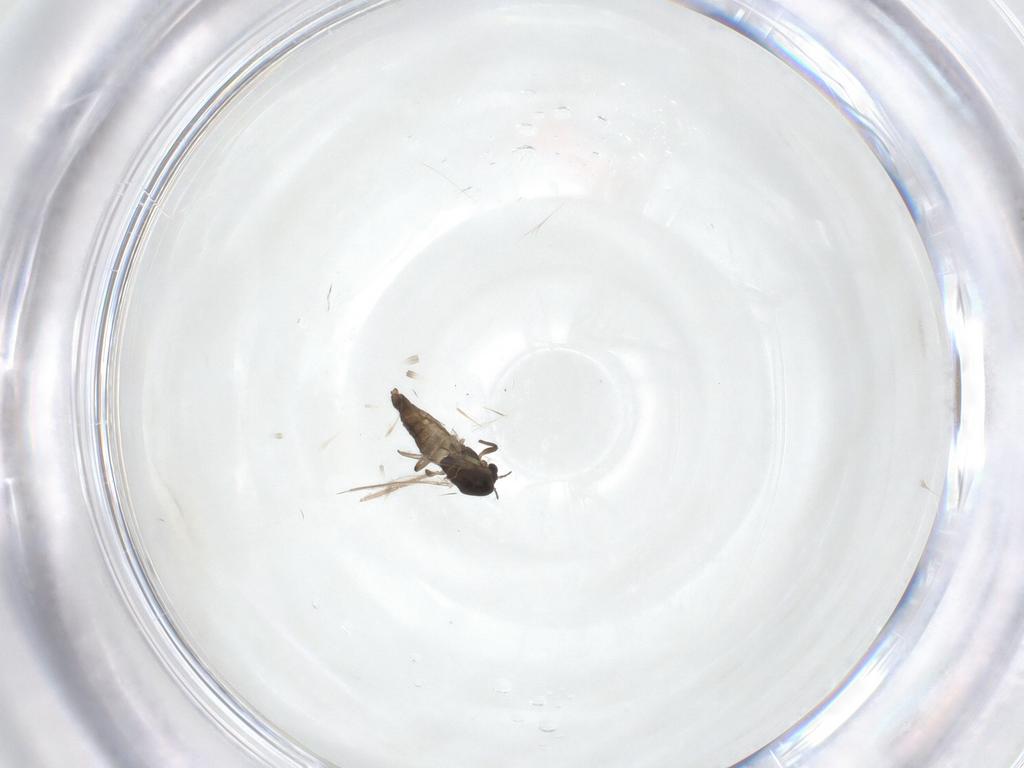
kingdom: Animalia
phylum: Arthropoda
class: Insecta
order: Diptera
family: Chironomidae
